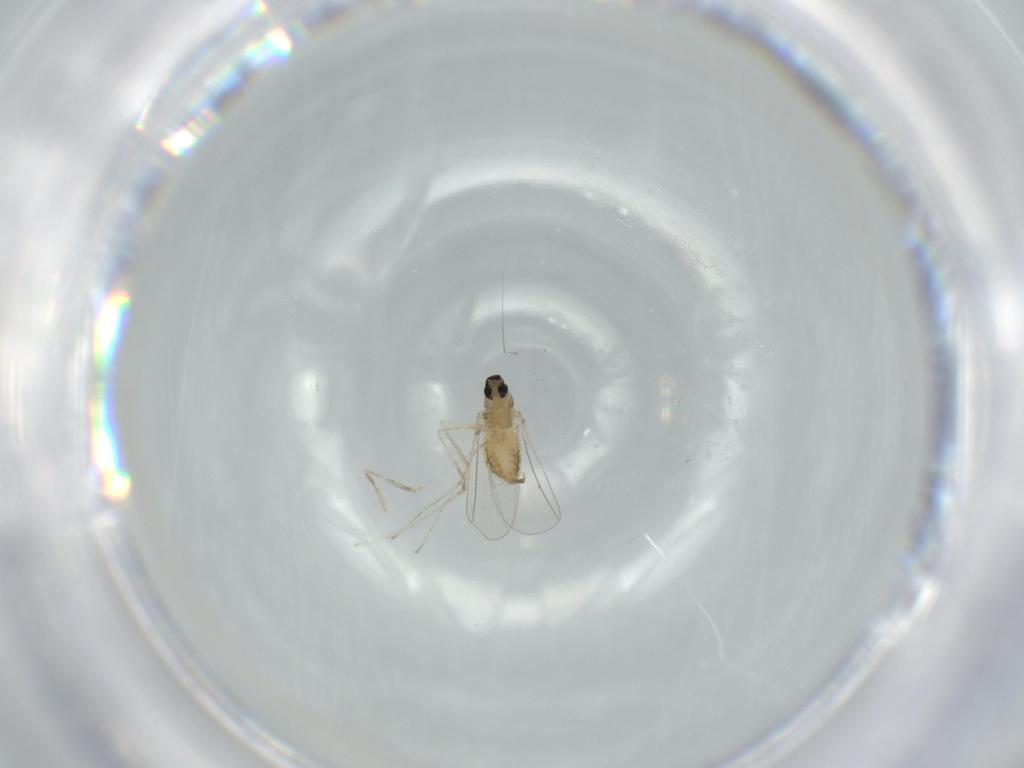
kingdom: Animalia
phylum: Arthropoda
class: Insecta
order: Diptera
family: Cecidomyiidae
